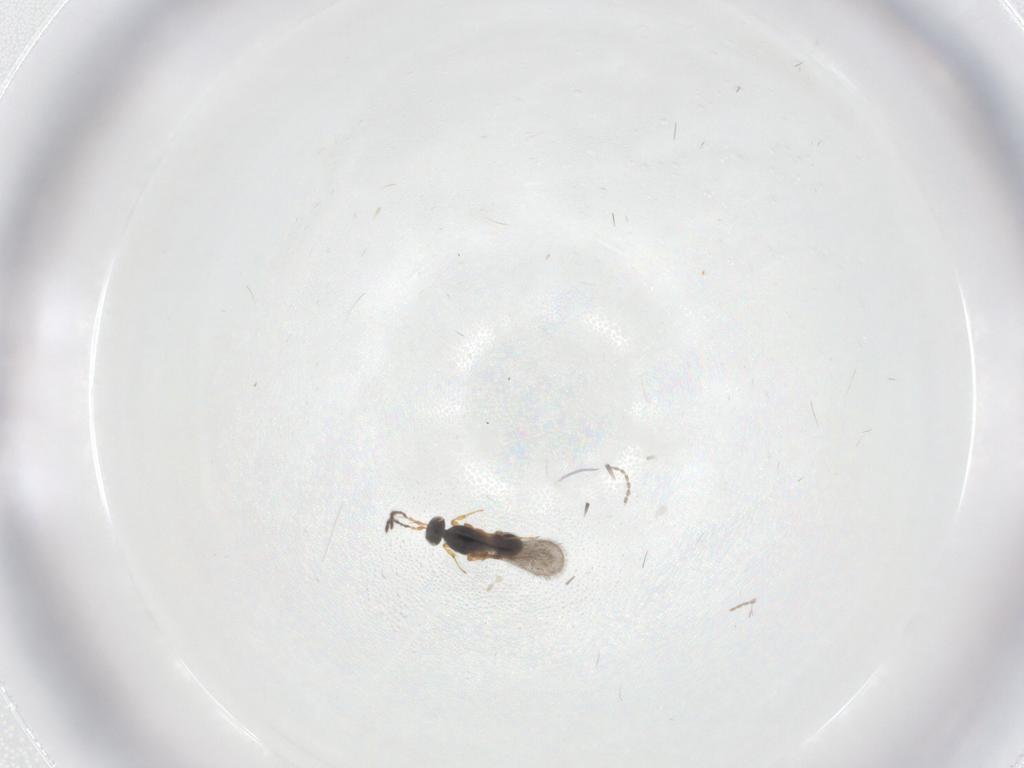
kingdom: Animalia
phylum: Arthropoda
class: Insecta
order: Hymenoptera
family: Platygastridae
